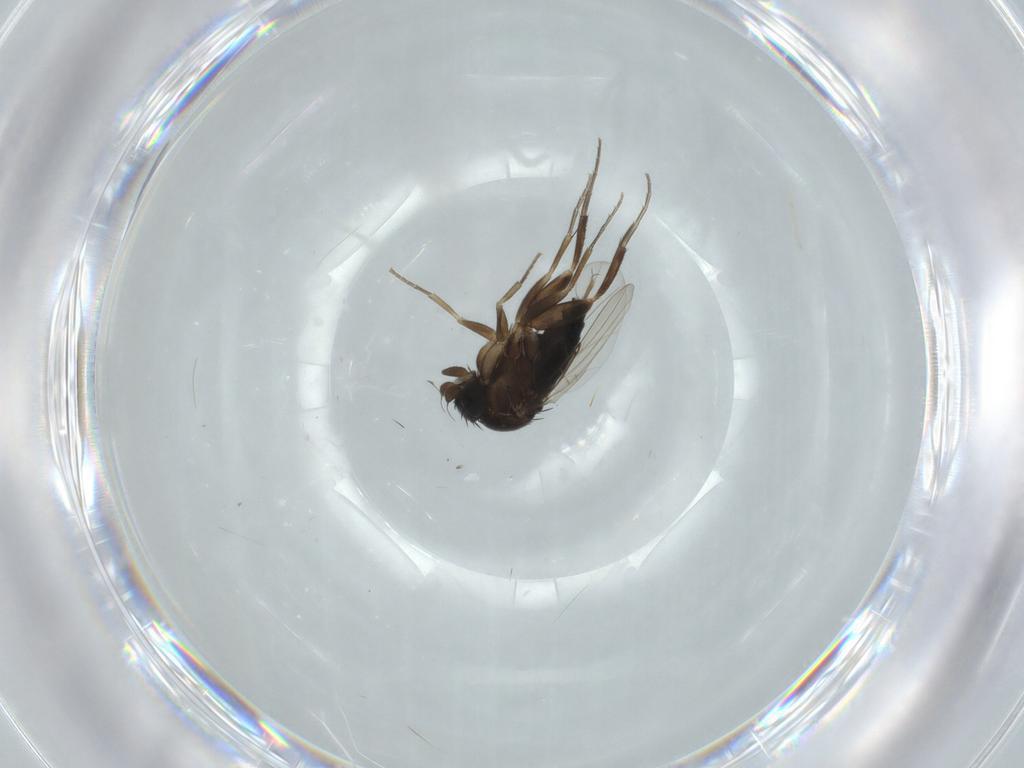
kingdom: Animalia
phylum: Arthropoda
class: Insecta
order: Diptera
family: Phoridae
